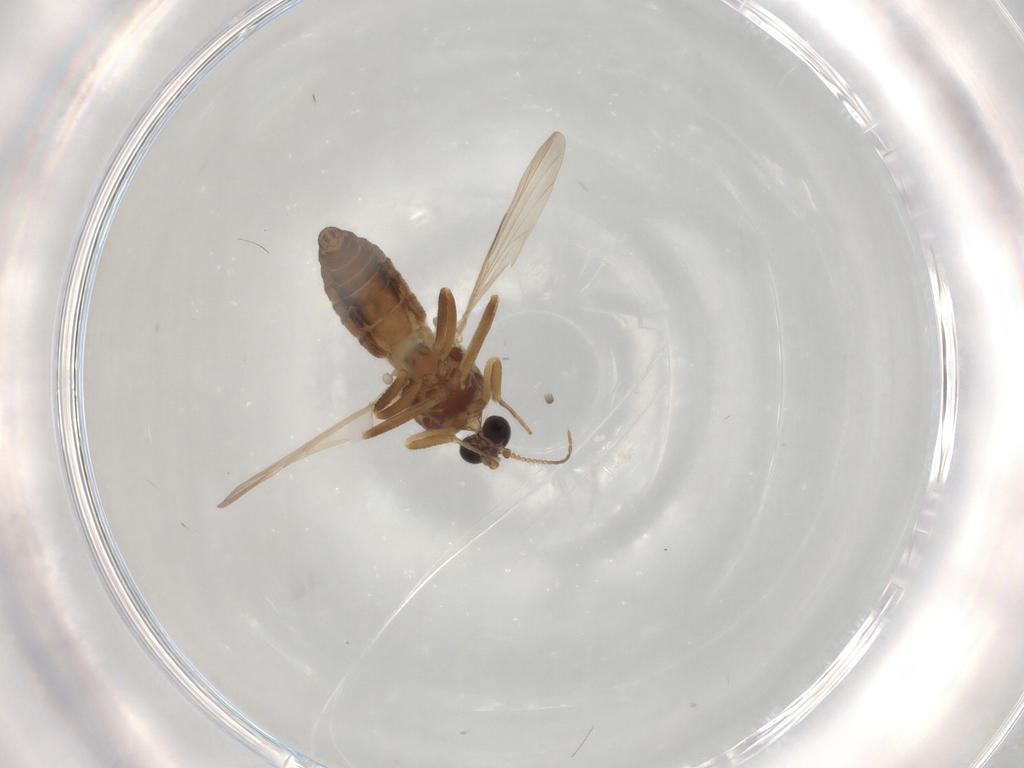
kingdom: Animalia
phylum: Arthropoda
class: Insecta
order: Diptera
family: Ceratopogonidae
